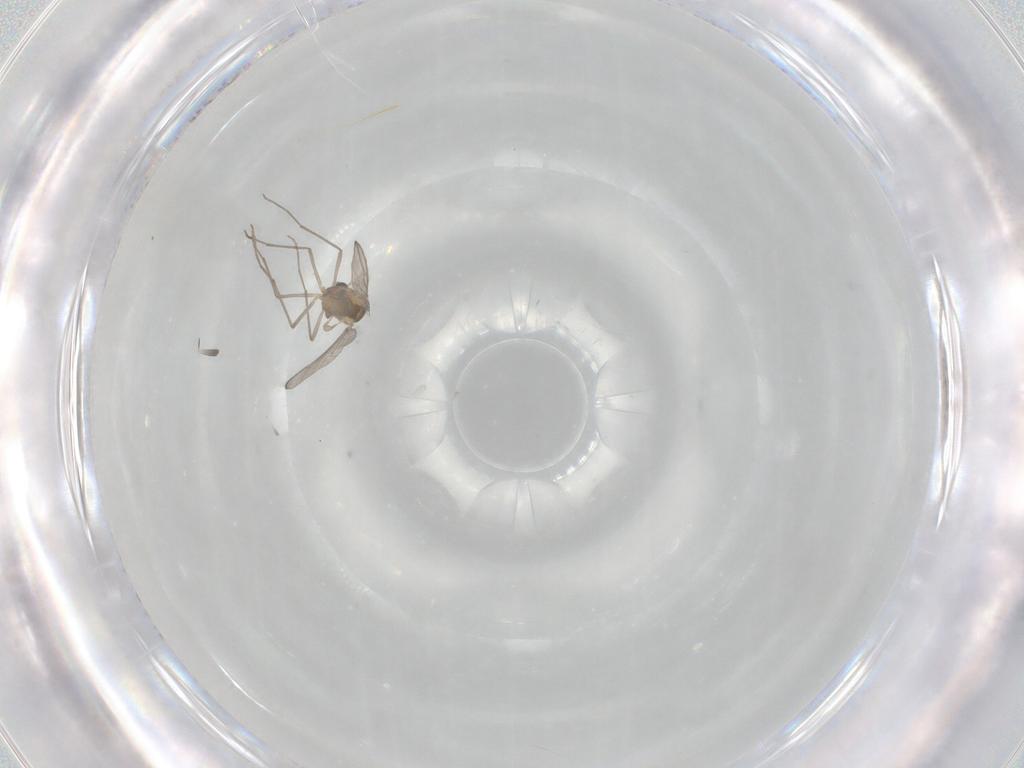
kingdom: Animalia
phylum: Arthropoda
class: Insecta
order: Diptera
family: Chironomidae
